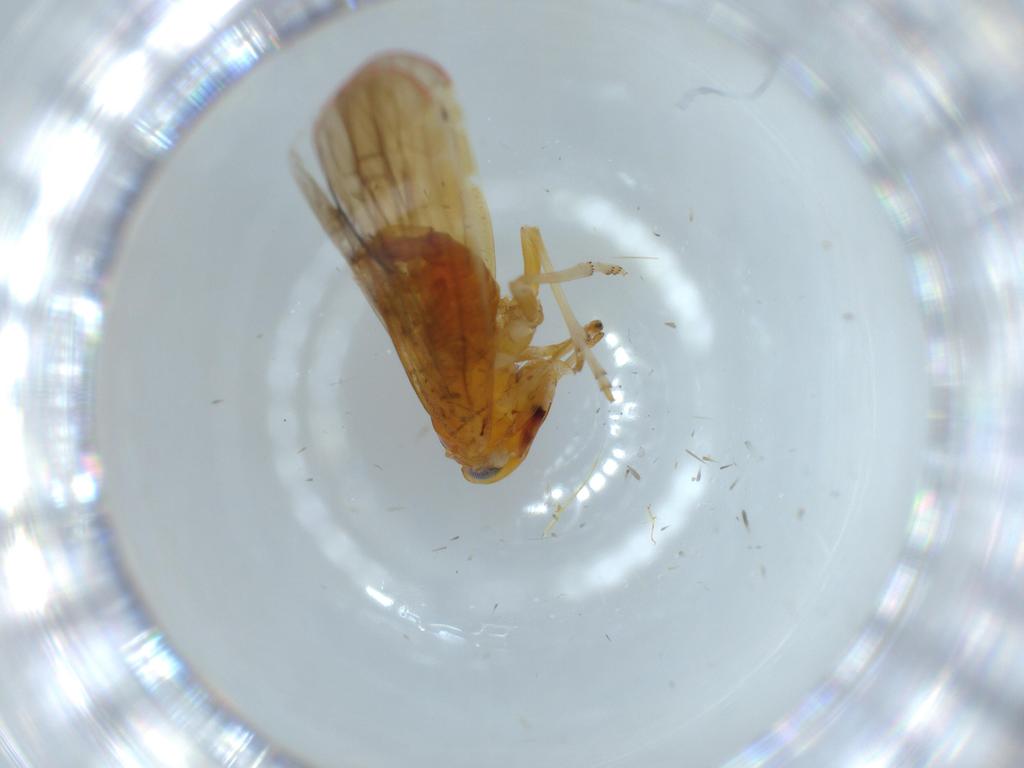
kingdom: Animalia
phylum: Arthropoda
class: Insecta
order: Hemiptera
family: Derbidae
